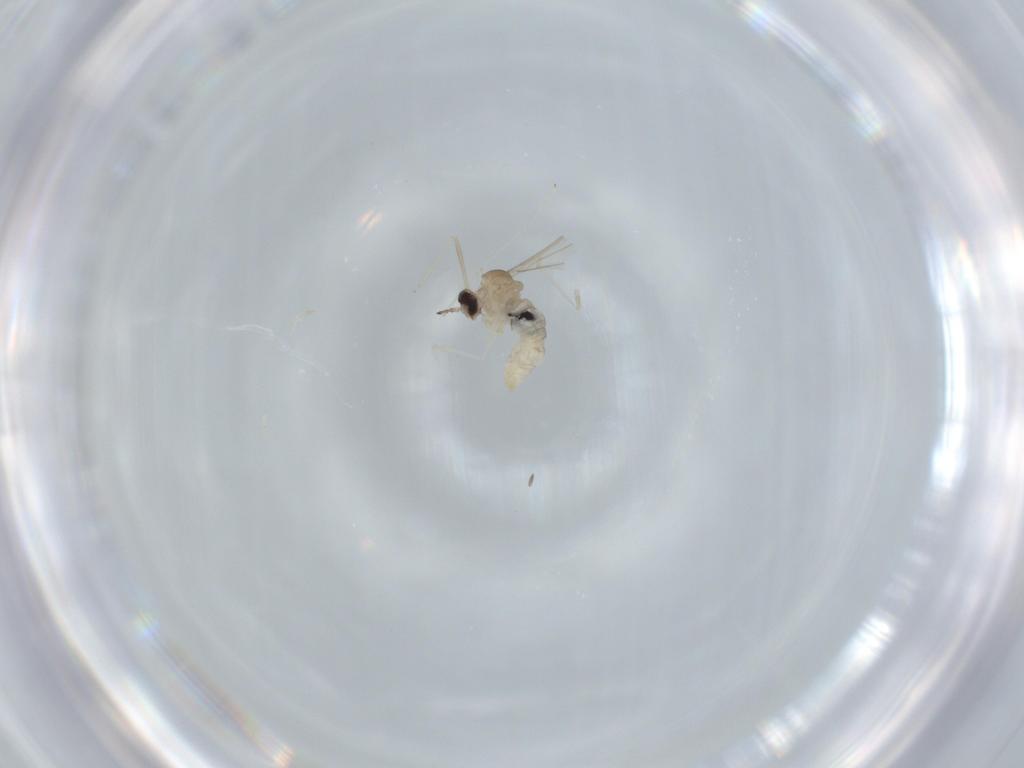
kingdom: Animalia
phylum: Arthropoda
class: Insecta
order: Diptera
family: Cecidomyiidae
